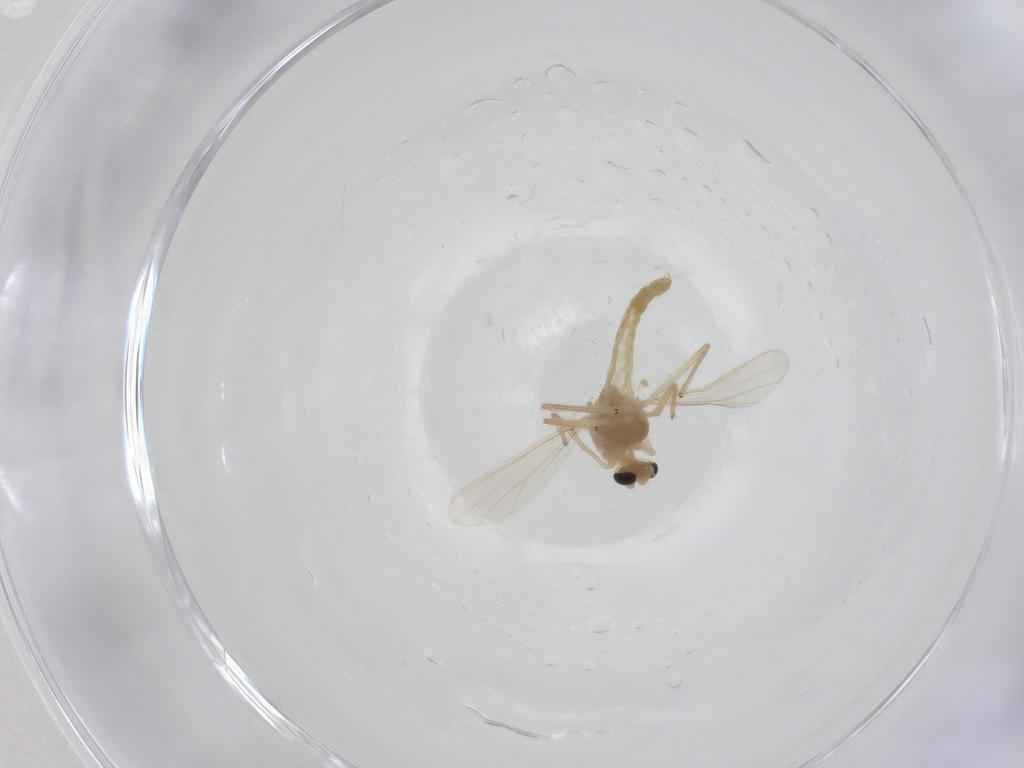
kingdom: Animalia
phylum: Arthropoda
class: Insecta
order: Diptera
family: Chironomidae
